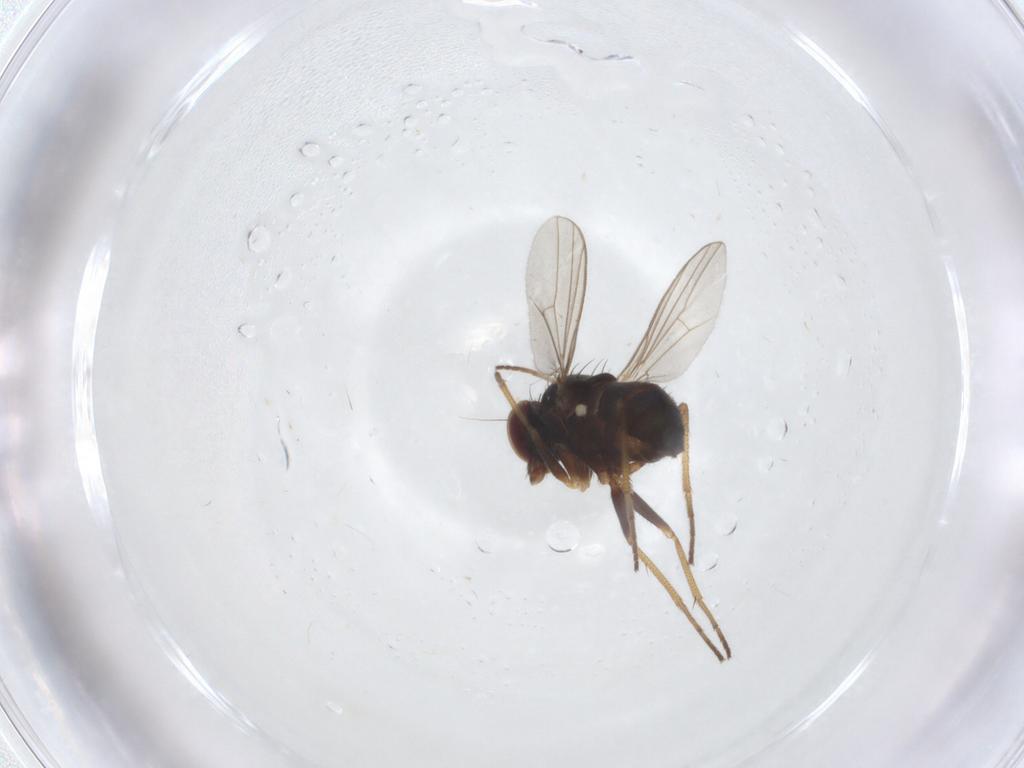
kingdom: Animalia
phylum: Arthropoda
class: Insecta
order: Diptera
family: Dolichopodidae
